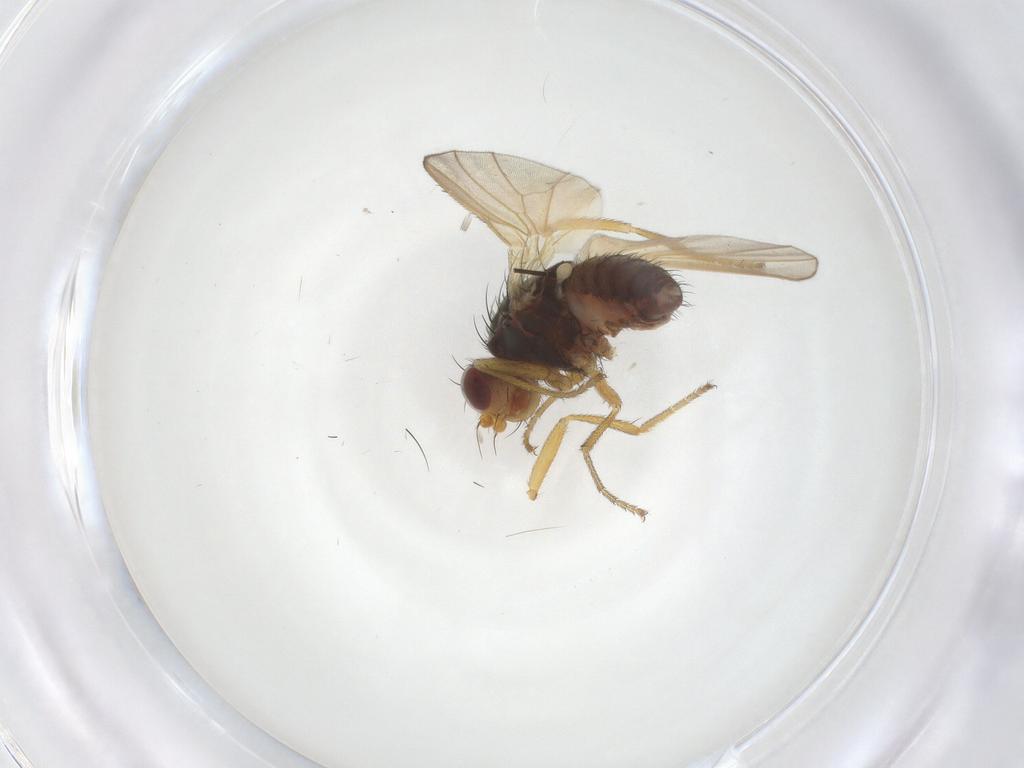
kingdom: Animalia
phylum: Arthropoda
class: Insecta
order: Diptera
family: Heleomyzidae
